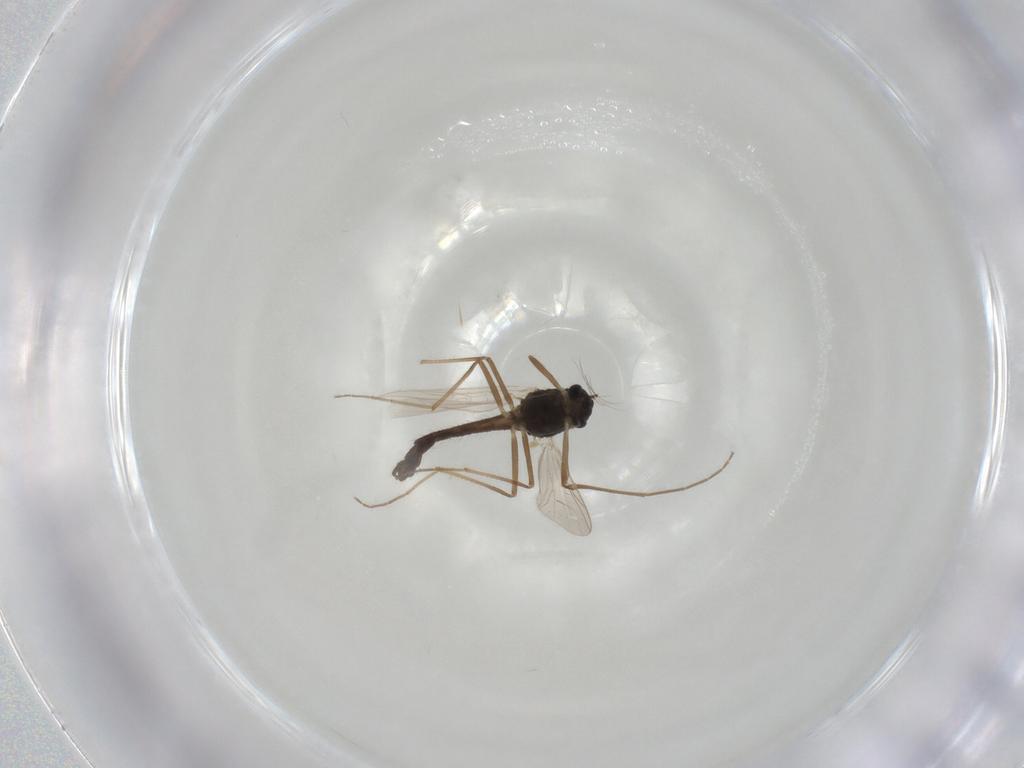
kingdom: Animalia
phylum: Arthropoda
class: Insecta
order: Diptera
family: Chironomidae
